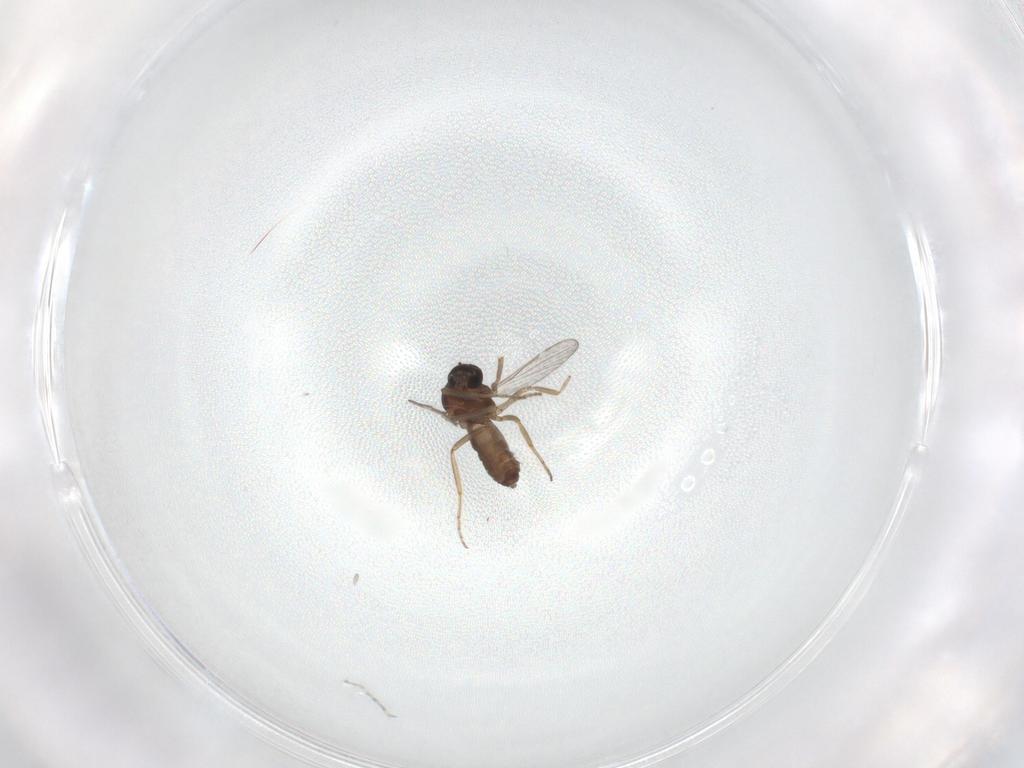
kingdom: Animalia
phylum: Arthropoda
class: Insecta
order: Diptera
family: Ceratopogonidae
